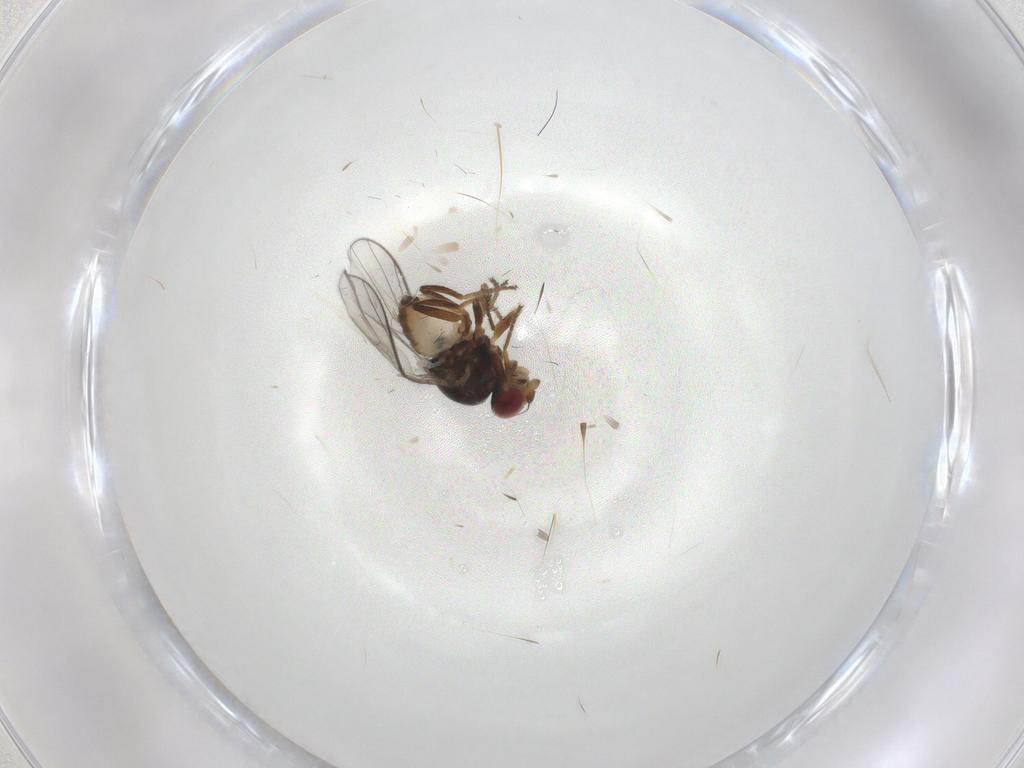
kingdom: Animalia
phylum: Arthropoda
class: Insecta
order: Diptera
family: Chloropidae
